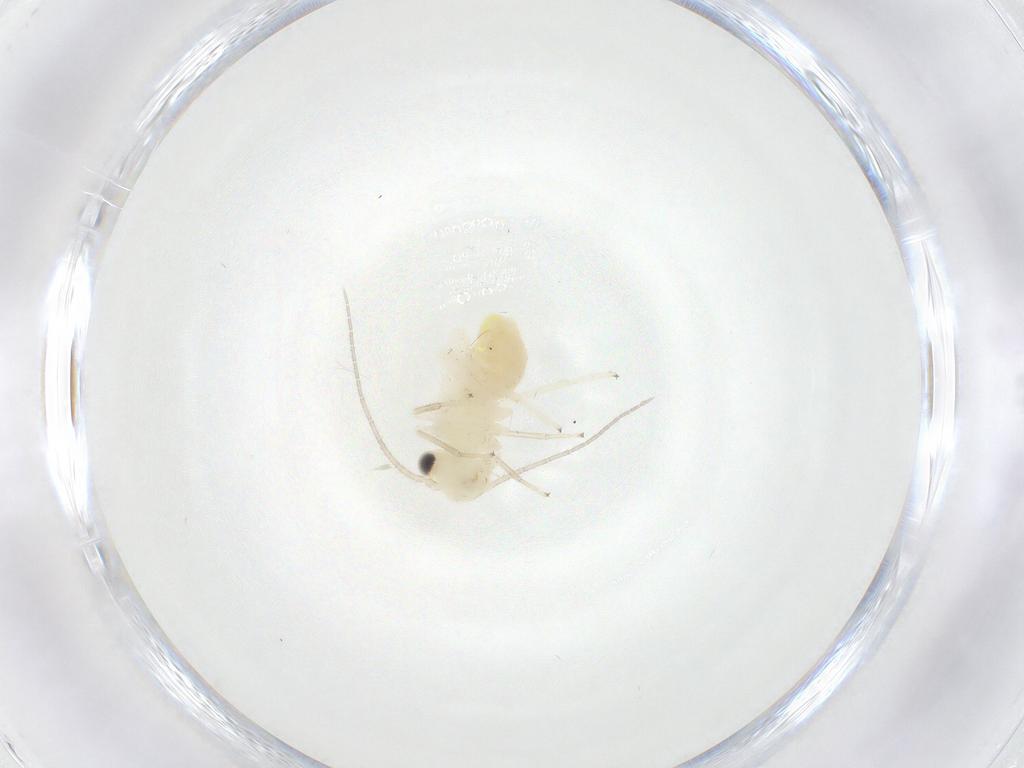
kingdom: Animalia
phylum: Arthropoda
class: Insecta
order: Psocodea
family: Caeciliusidae
